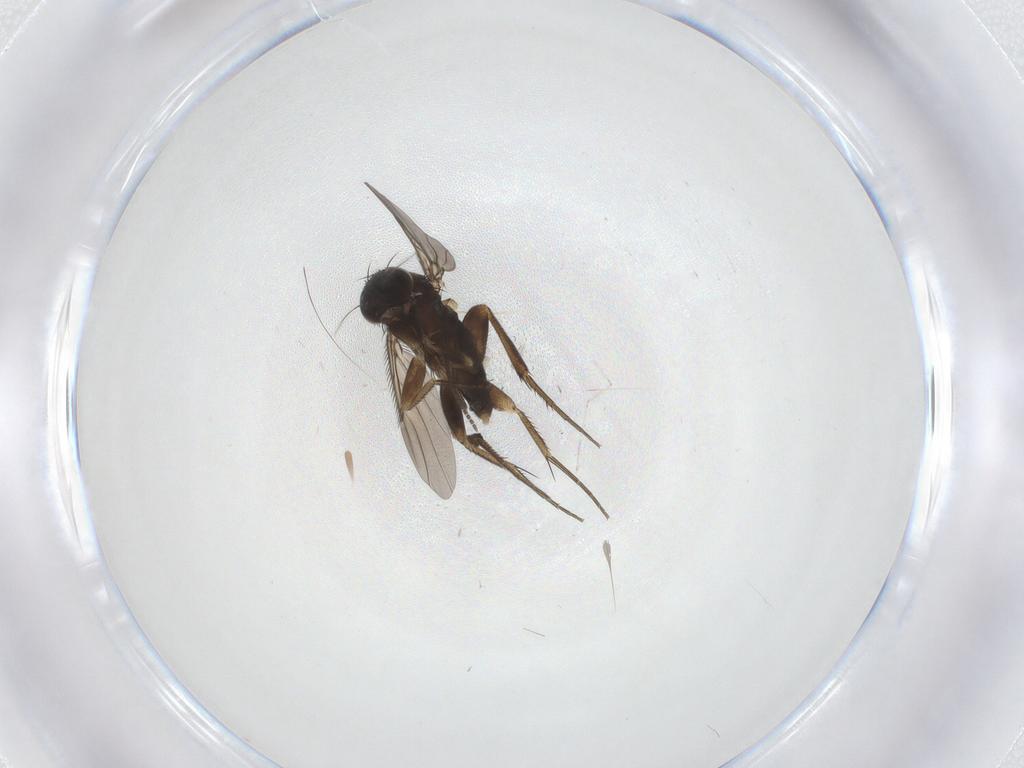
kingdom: Animalia
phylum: Arthropoda
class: Insecta
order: Diptera
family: Phoridae
